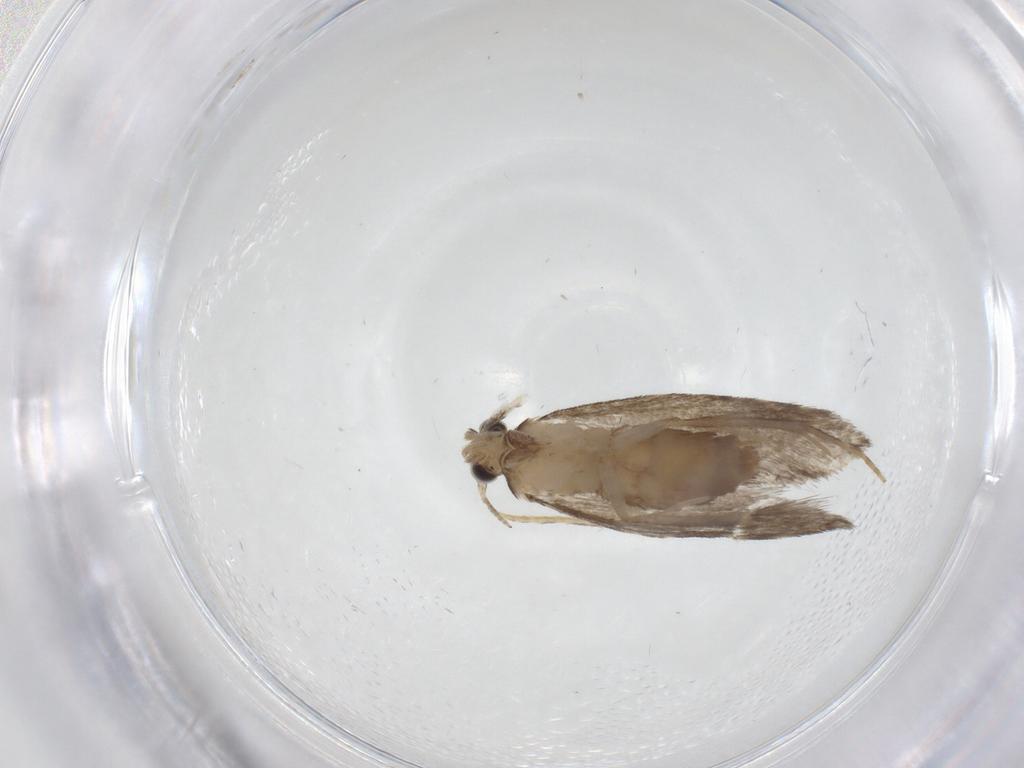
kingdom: Animalia
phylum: Arthropoda
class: Insecta
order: Lepidoptera
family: Tineidae
